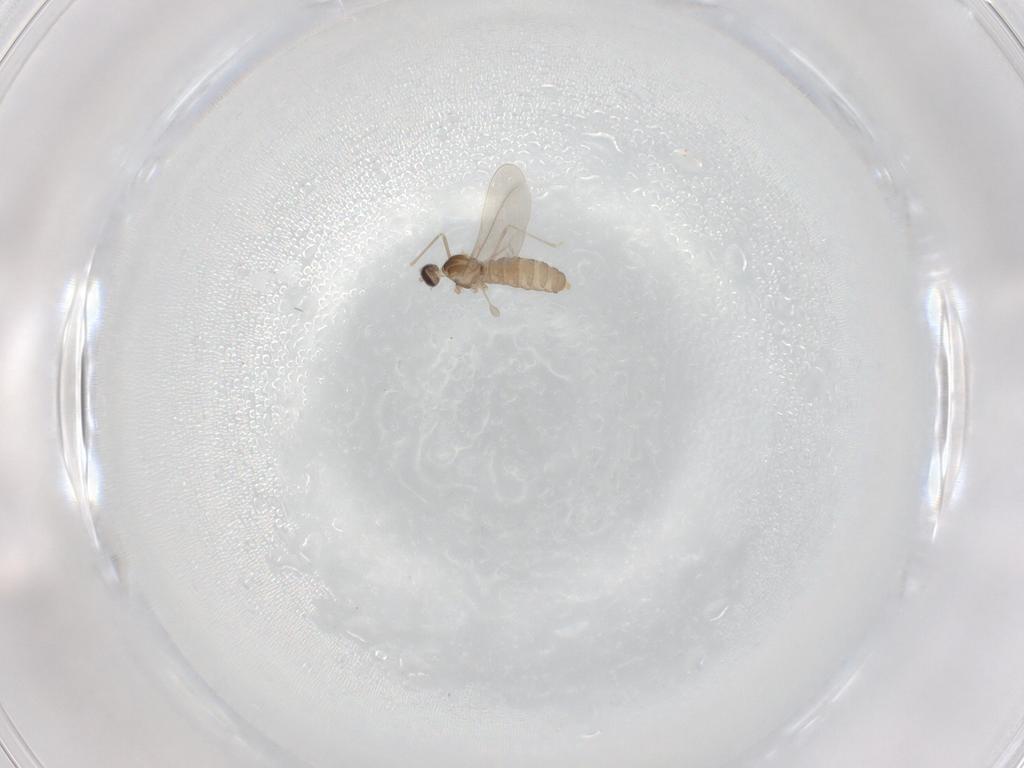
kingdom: Animalia
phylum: Arthropoda
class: Insecta
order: Diptera
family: Cecidomyiidae
